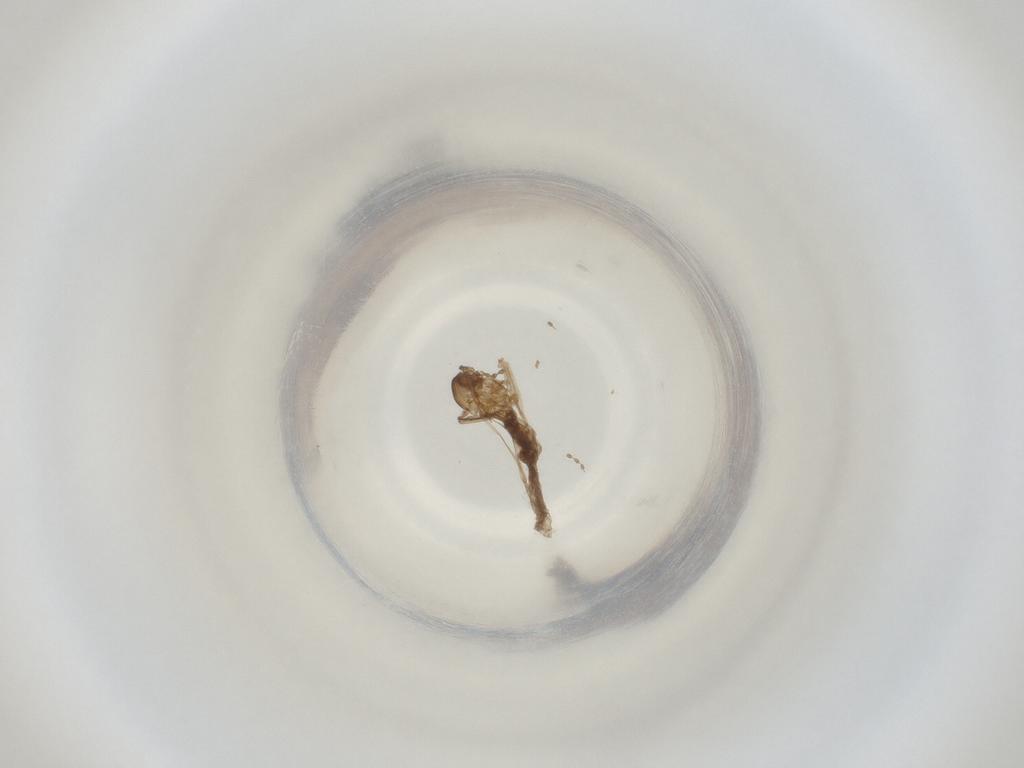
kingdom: Animalia
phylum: Arthropoda
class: Insecta
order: Diptera
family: Cecidomyiidae
